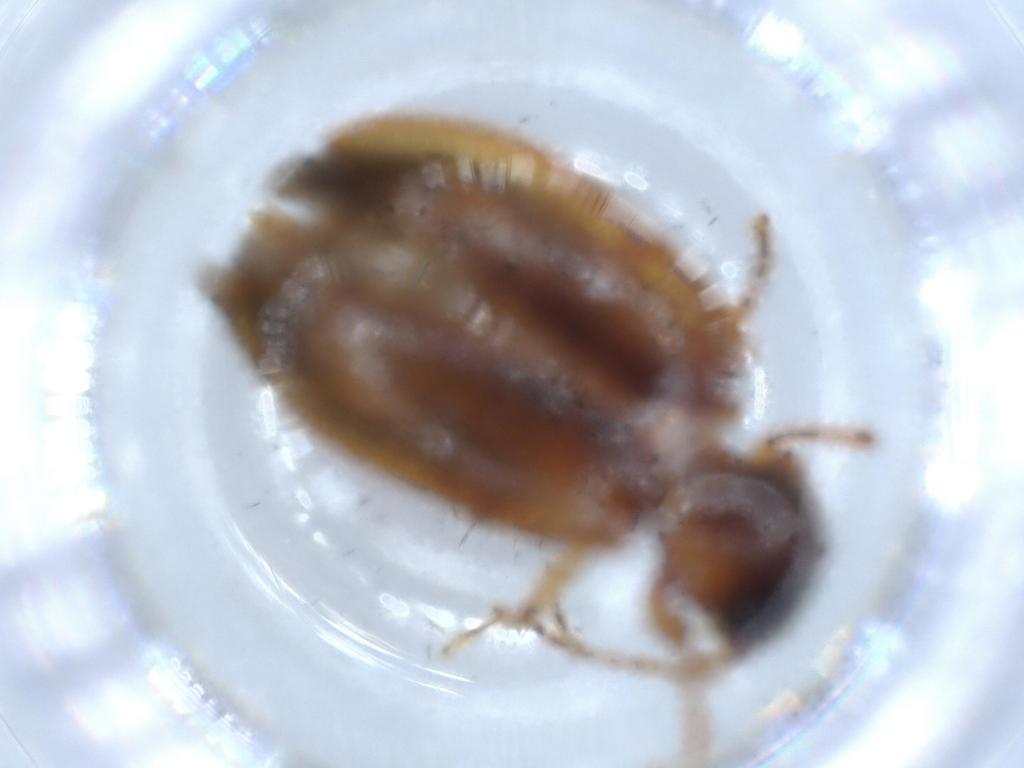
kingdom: Animalia
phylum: Arthropoda
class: Insecta
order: Coleoptera
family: Ptilodactylidae
